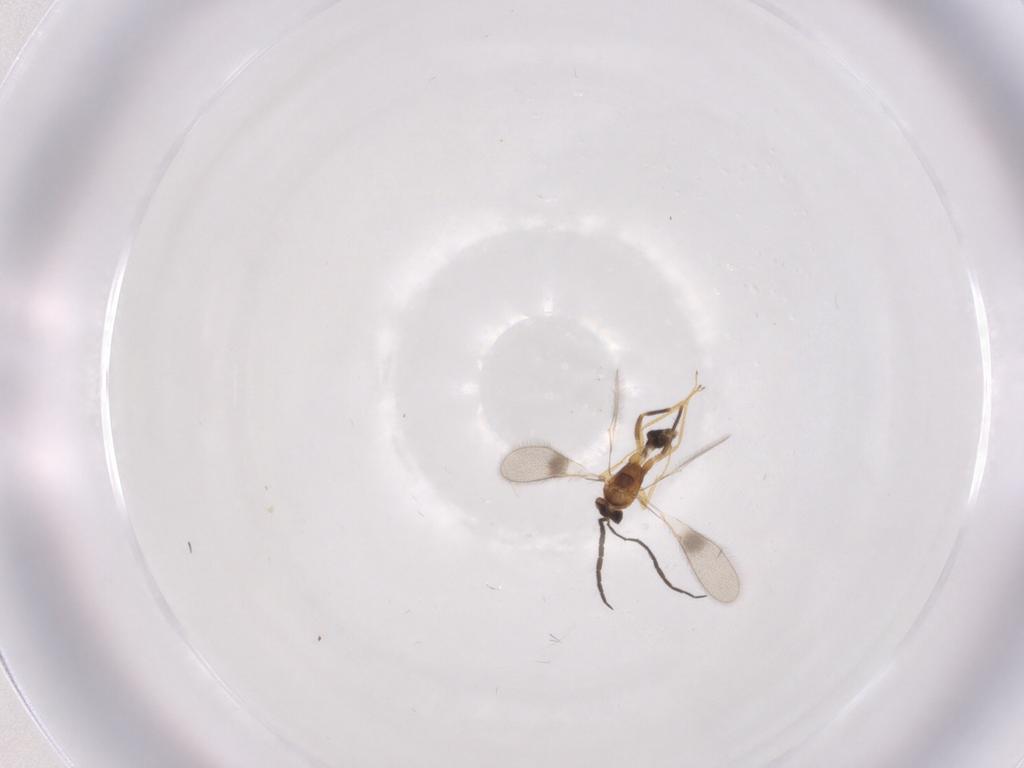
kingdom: Animalia
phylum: Arthropoda
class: Insecta
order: Hymenoptera
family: Mymaridae
